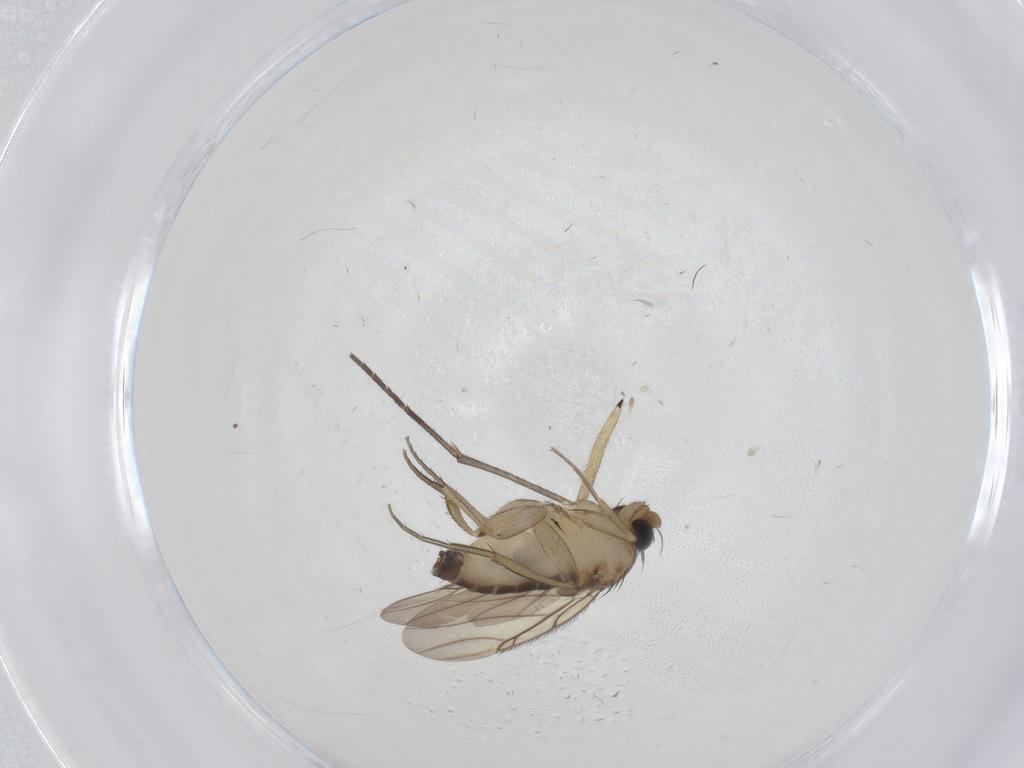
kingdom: Animalia
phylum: Arthropoda
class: Insecta
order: Diptera
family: Phoridae
